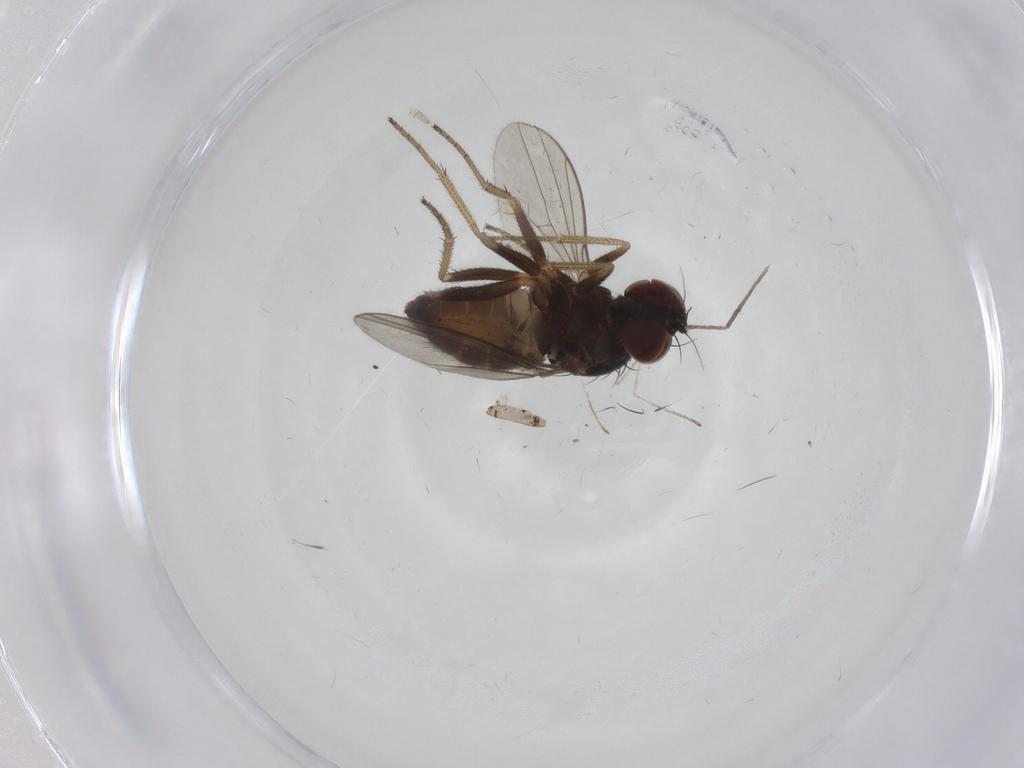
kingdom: Animalia
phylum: Arthropoda
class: Insecta
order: Diptera
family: Cecidomyiidae
